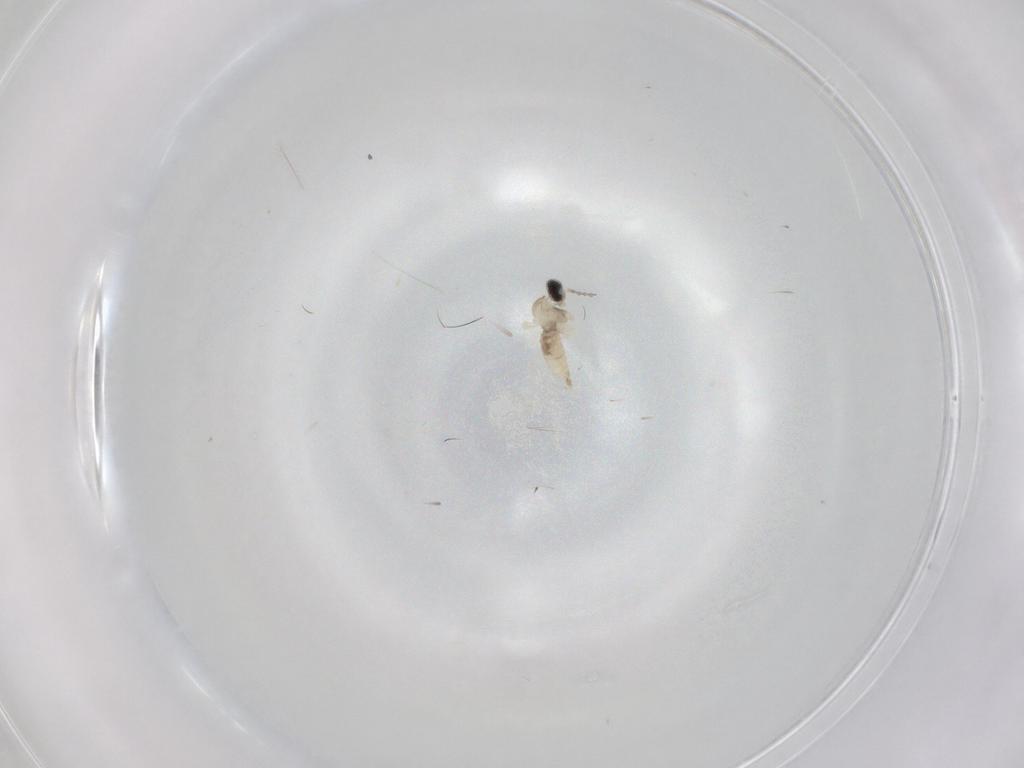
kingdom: Animalia
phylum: Arthropoda
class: Insecta
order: Diptera
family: Cecidomyiidae
